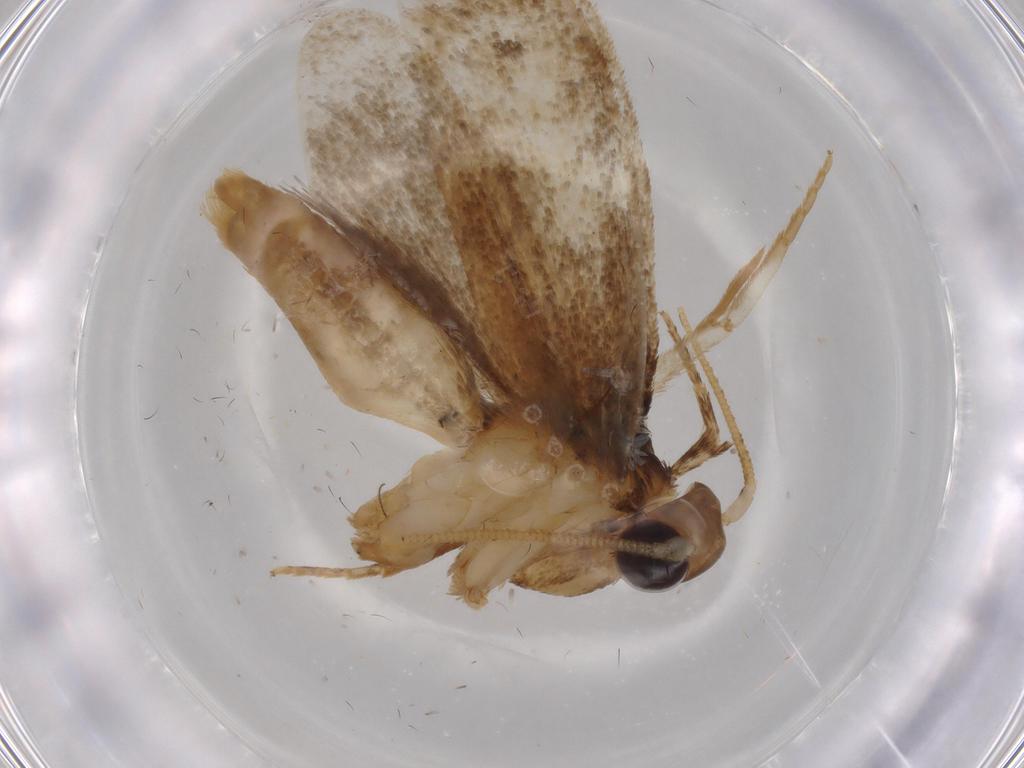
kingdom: Animalia
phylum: Arthropoda
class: Insecta
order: Lepidoptera
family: Tineidae
